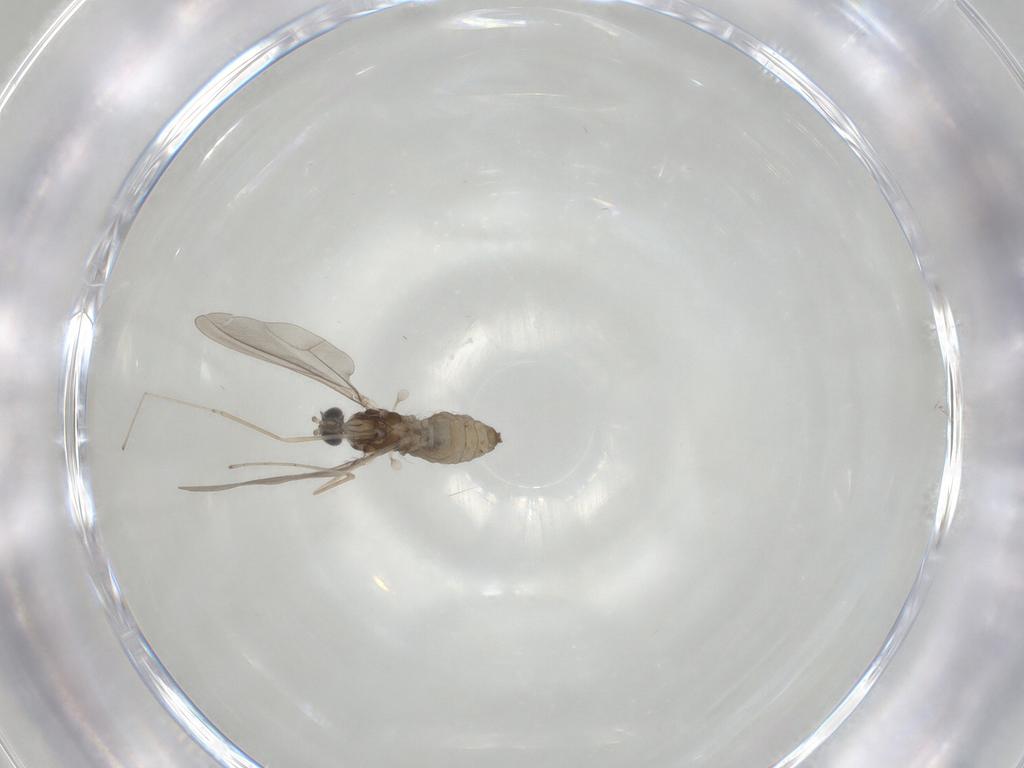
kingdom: Animalia
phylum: Arthropoda
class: Insecta
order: Diptera
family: Cecidomyiidae
